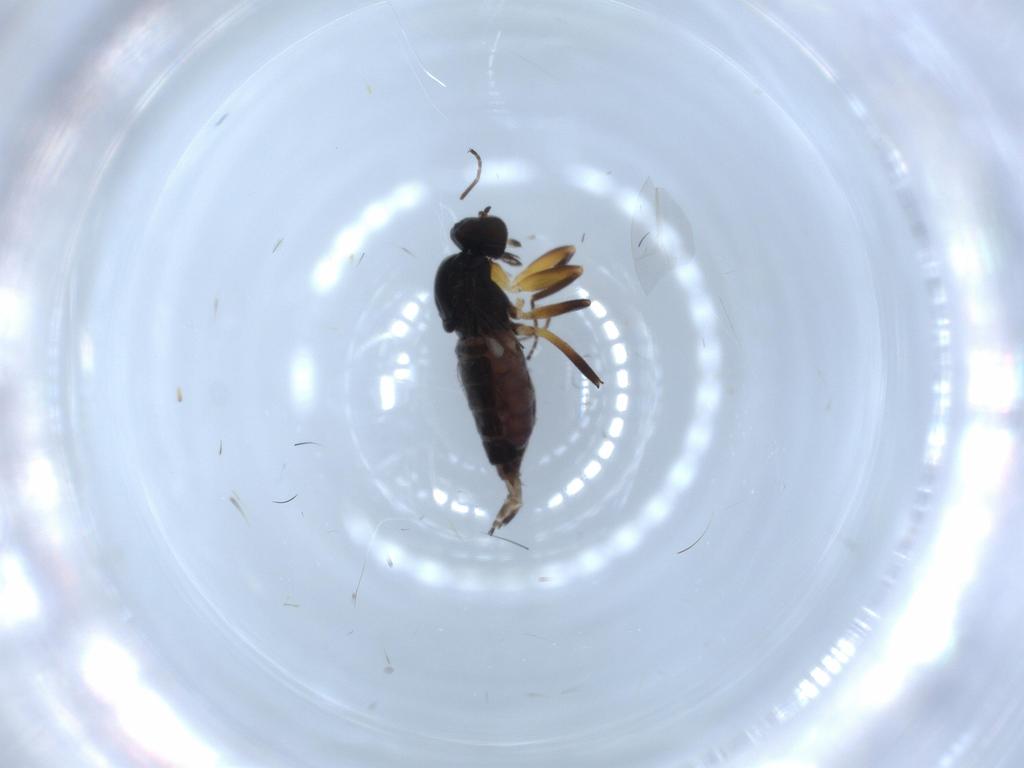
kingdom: Animalia
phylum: Arthropoda
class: Insecta
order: Diptera
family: Hybotidae
